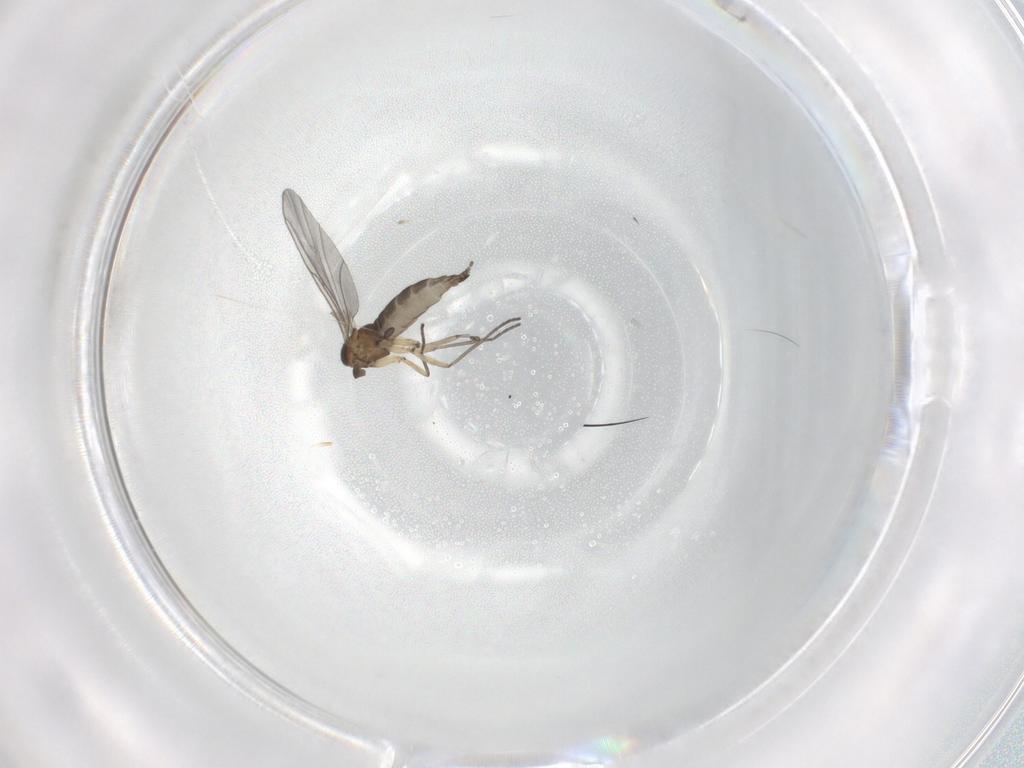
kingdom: Animalia
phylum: Arthropoda
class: Insecta
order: Diptera
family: Sciaridae
